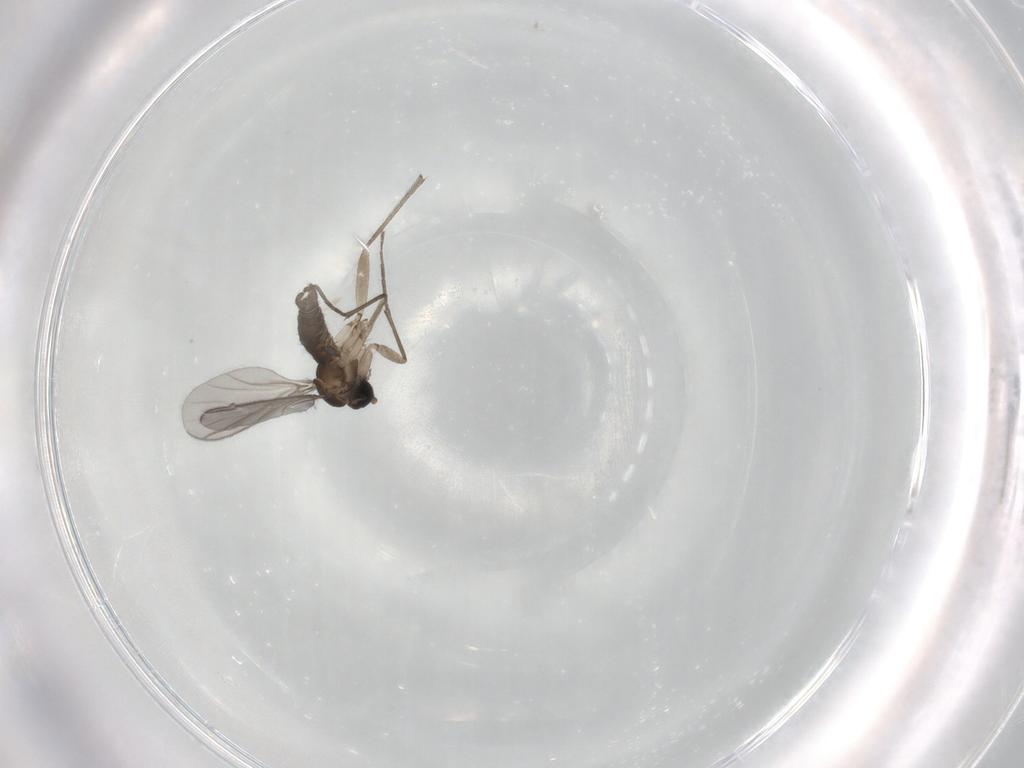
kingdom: Animalia
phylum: Arthropoda
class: Insecta
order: Diptera
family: Sciaridae
